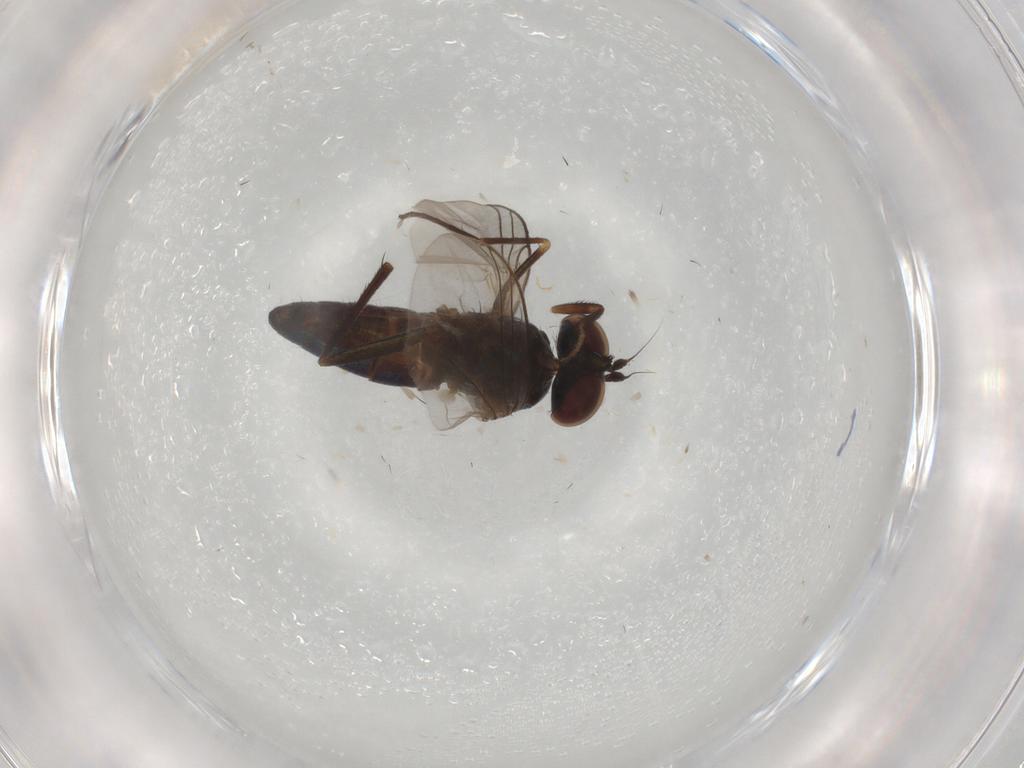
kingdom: Animalia
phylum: Arthropoda
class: Insecta
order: Diptera
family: Dolichopodidae
